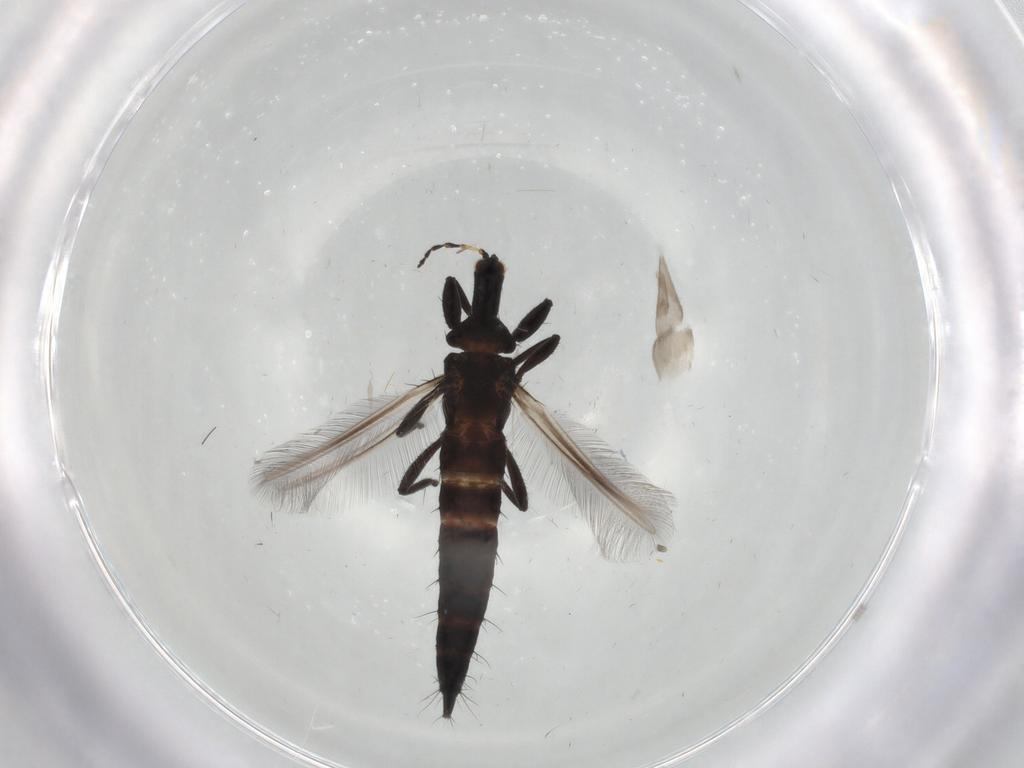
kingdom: Animalia
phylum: Arthropoda
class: Insecta
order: Thysanoptera
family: Phlaeothripidae
